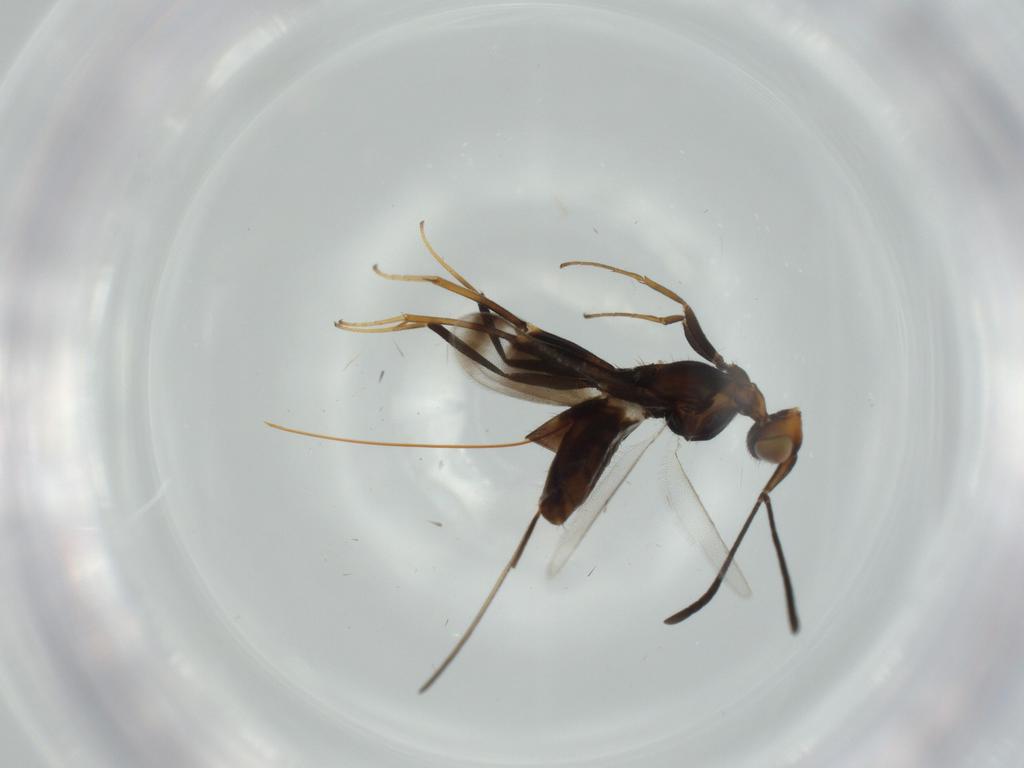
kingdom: Animalia
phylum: Arthropoda
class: Insecta
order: Hymenoptera
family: Eupelmidae
